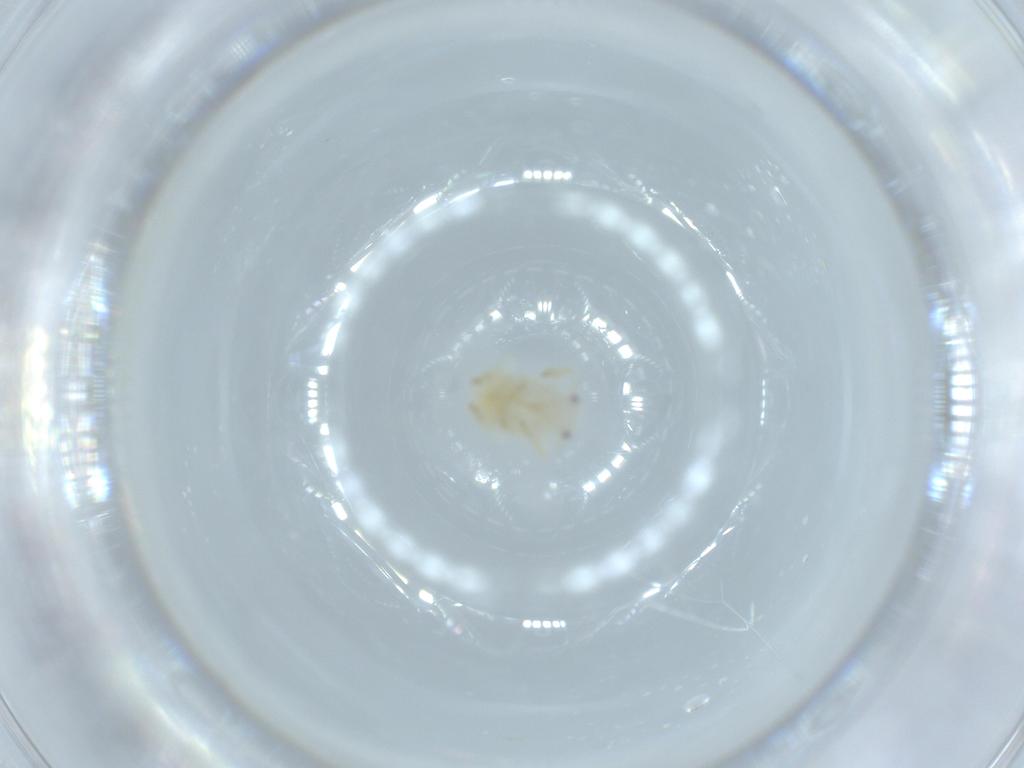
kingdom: Animalia
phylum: Arthropoda
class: Insecta
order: Hemiptera
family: Flatidae
